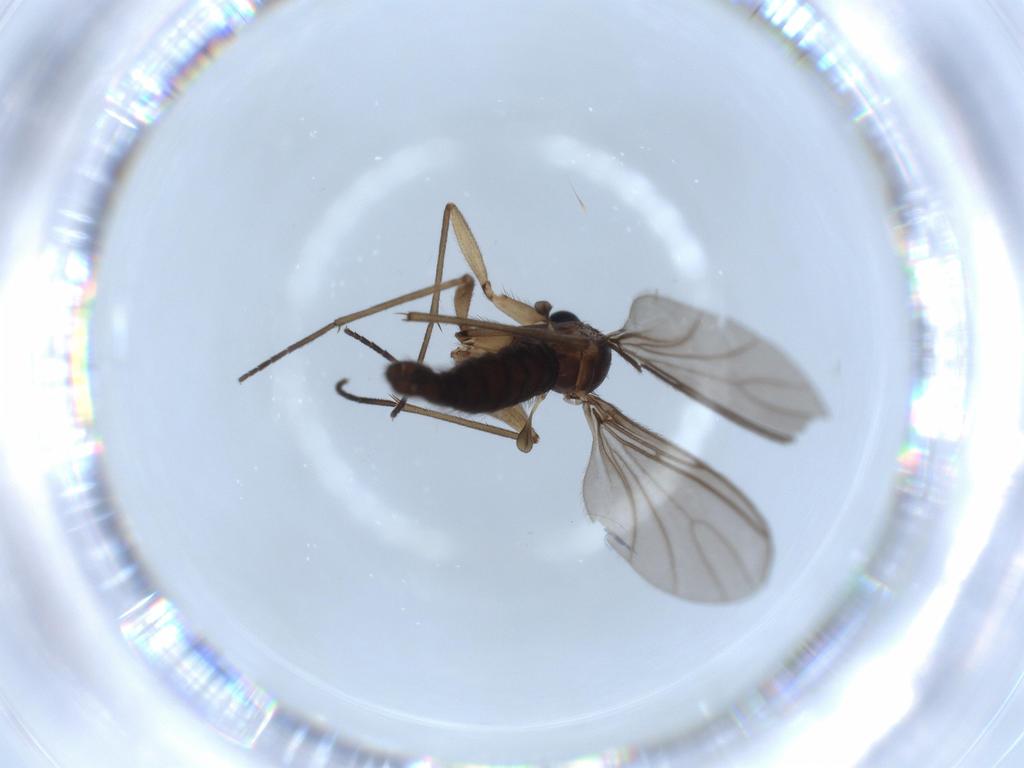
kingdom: Animalia
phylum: Arthropoda
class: Insecta
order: Diptera
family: Sciaridae
